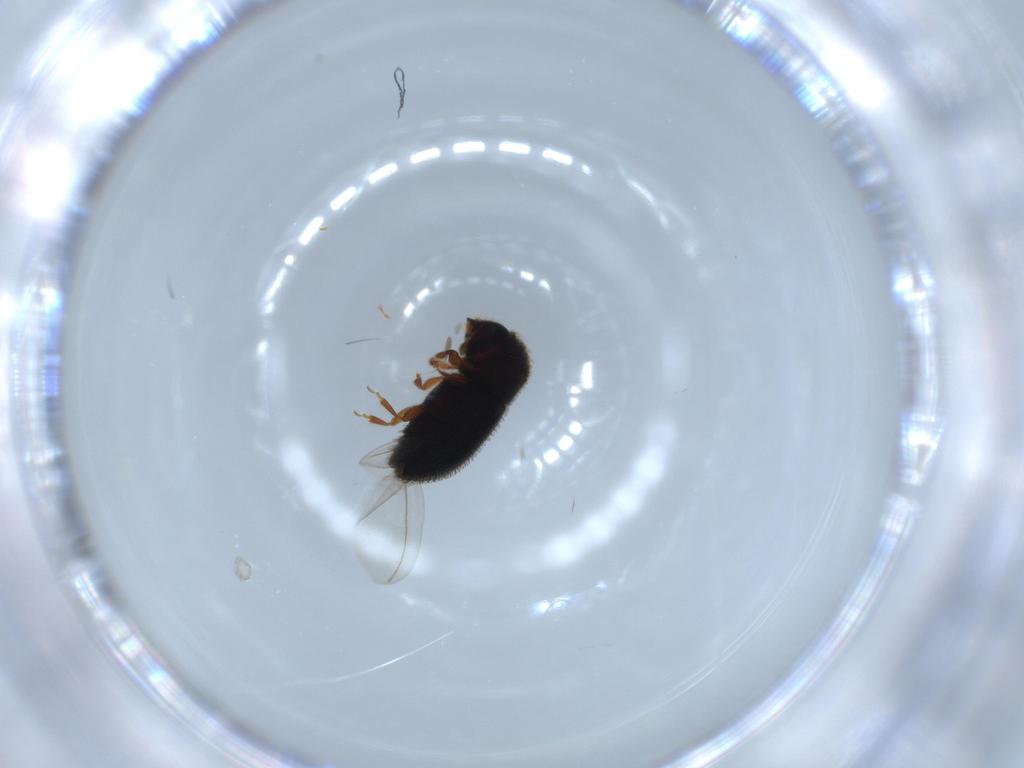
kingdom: Animalia
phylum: Arthropoda
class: Insecta
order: Coleoptera
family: Curculionidae
